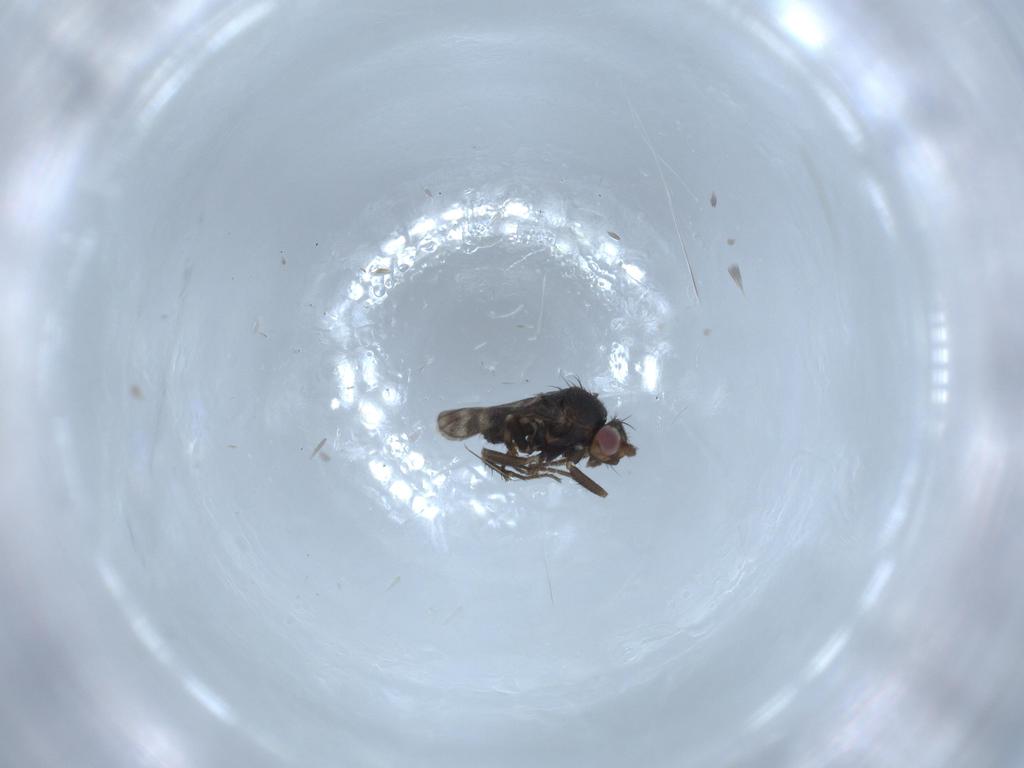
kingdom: Animalia
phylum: Arthropoda
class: Insecta
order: Diptera
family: Sphaeroceridae
